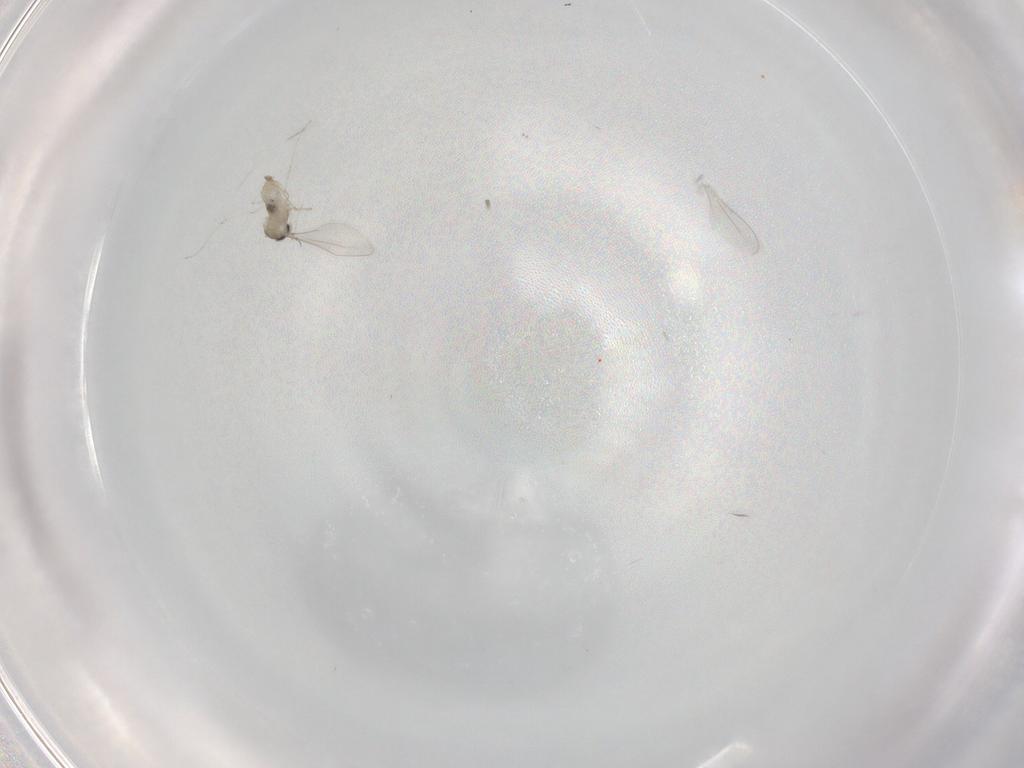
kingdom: Animalia
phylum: Arthropoda
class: Insecta
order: Diptera
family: Cecidomyiidae
